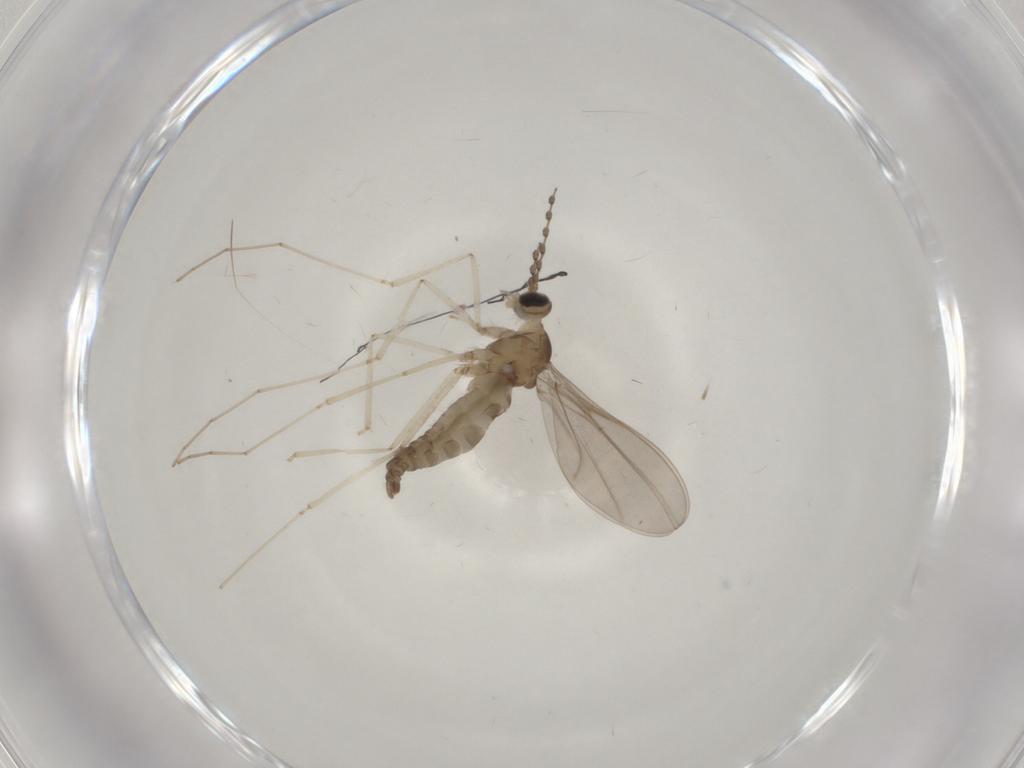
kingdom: Animalia
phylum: Arthropoda
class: Insecta
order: Diptera
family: Cecidomyiidae
